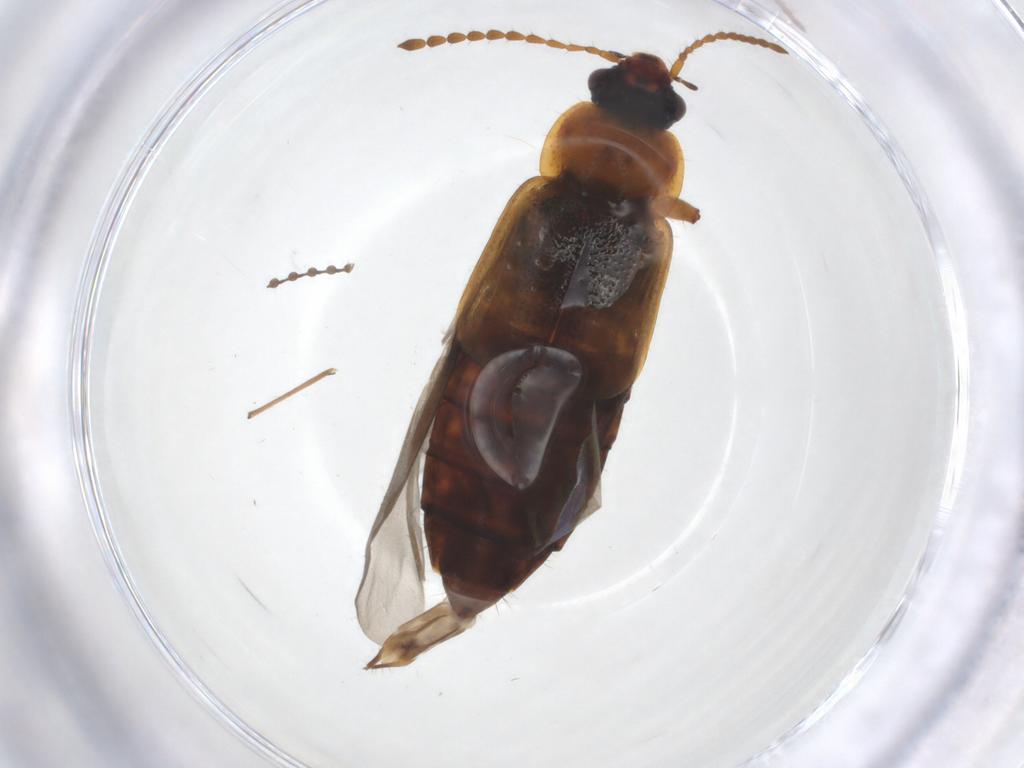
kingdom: Animalia
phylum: Arthropoda
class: Insecta
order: Coleoptera
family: Staphylinidae
